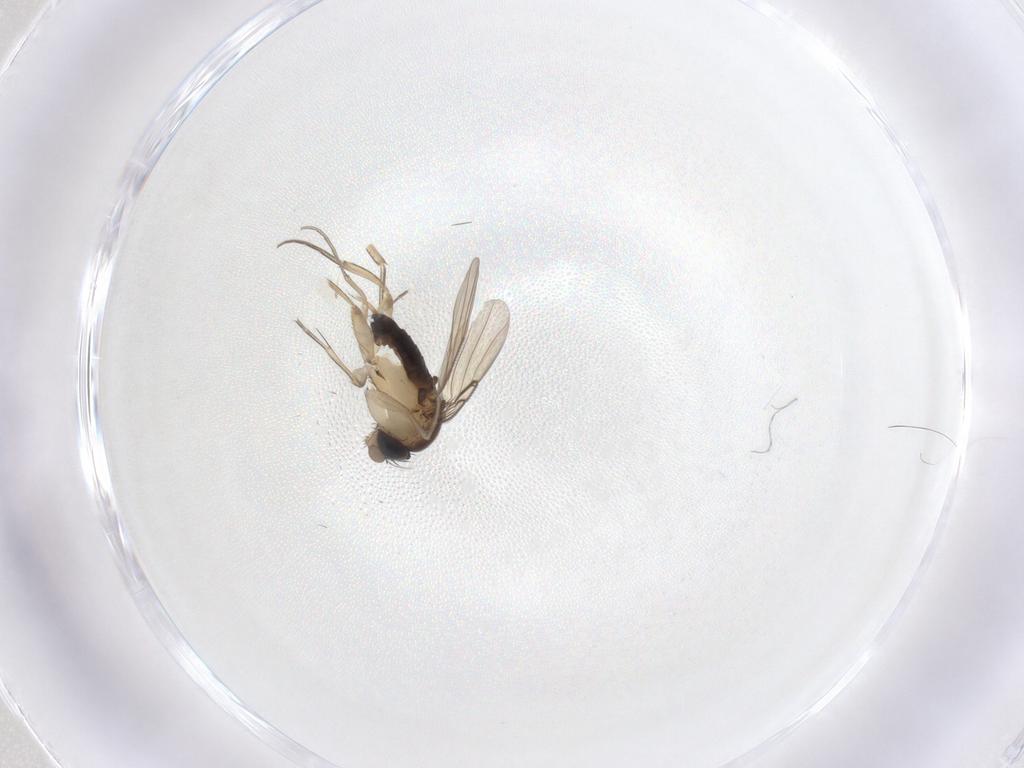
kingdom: Animalia
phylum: Arthropoda
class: Insecta
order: Diptera
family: Phoridae
